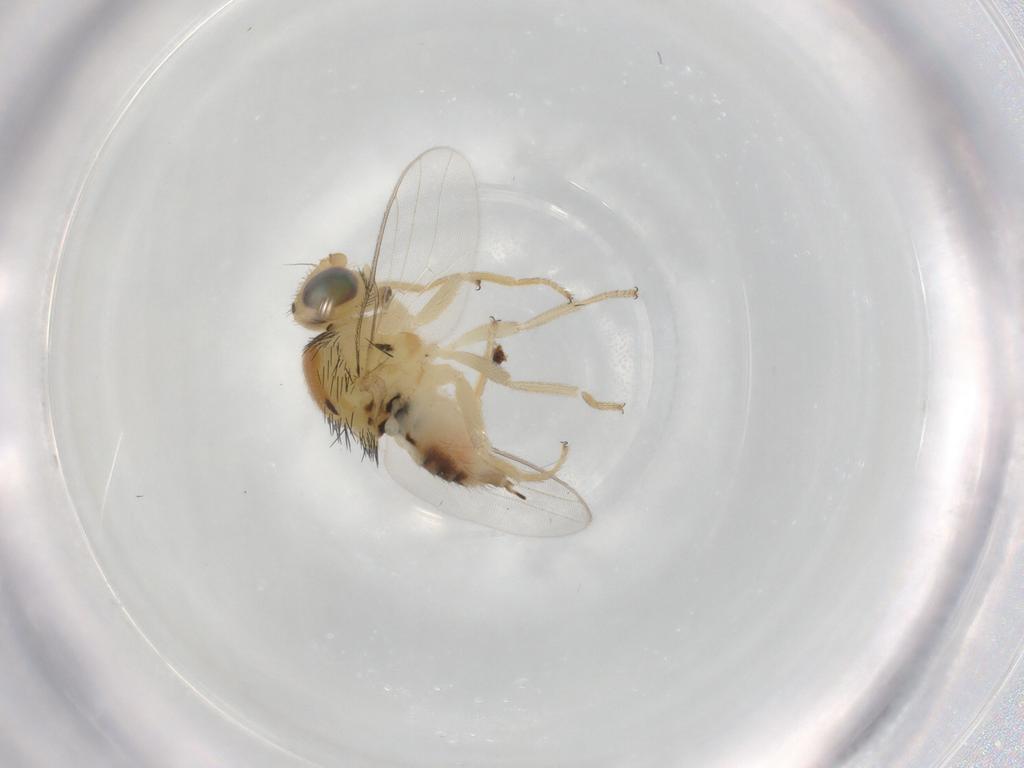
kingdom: Animalia
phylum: Arthropoda
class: Insecta
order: Diptera
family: Chloropidae
